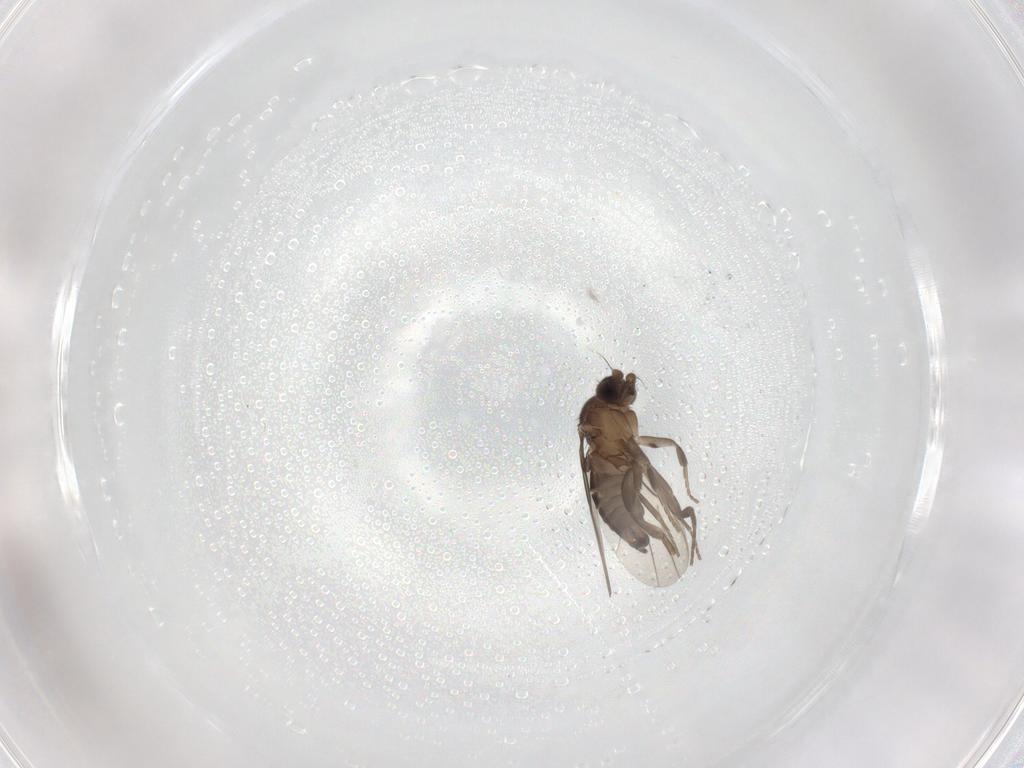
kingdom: Animalia
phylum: Arthropoda
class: Insecta
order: Diptera
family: Phoridae
